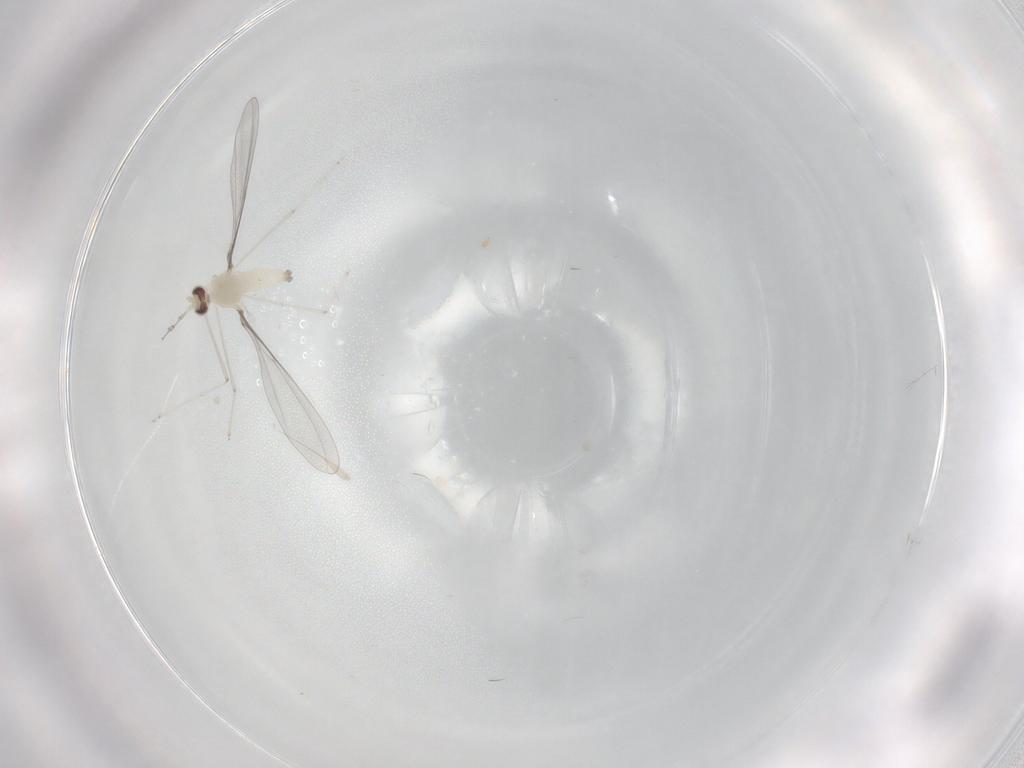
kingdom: Animalia
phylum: Arthropoda
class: Insecta
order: Diptera
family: Cecidomyiidae
